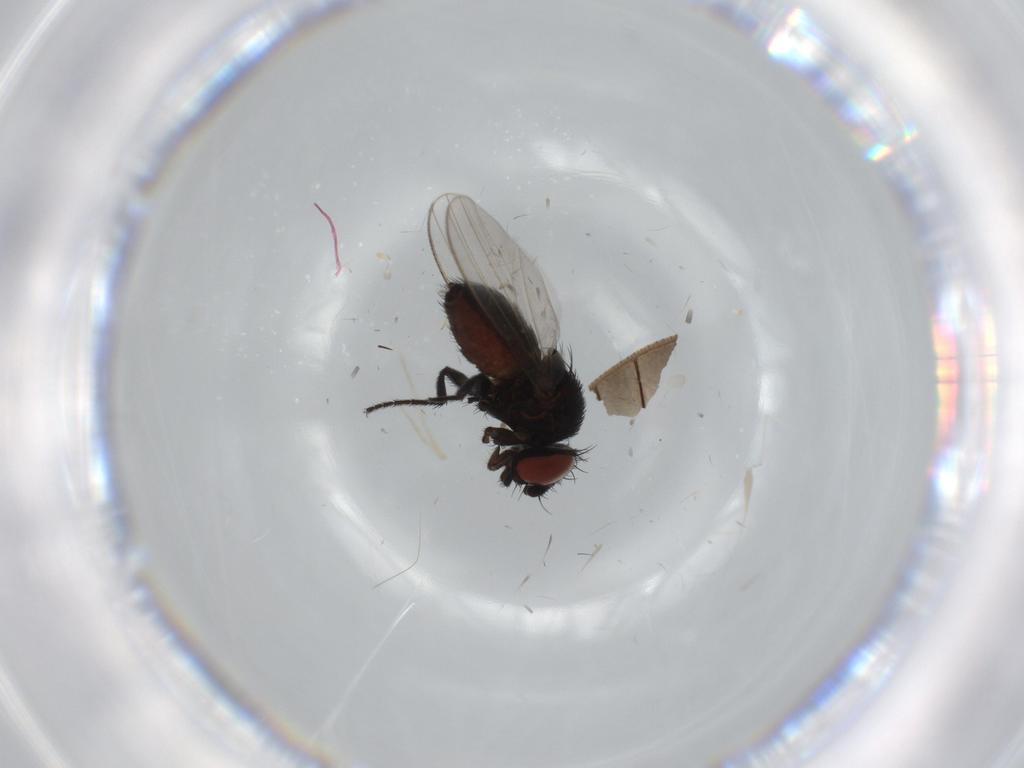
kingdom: Animalia
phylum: Arthropoda
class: Insecta
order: Diptera
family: Milichiidae
